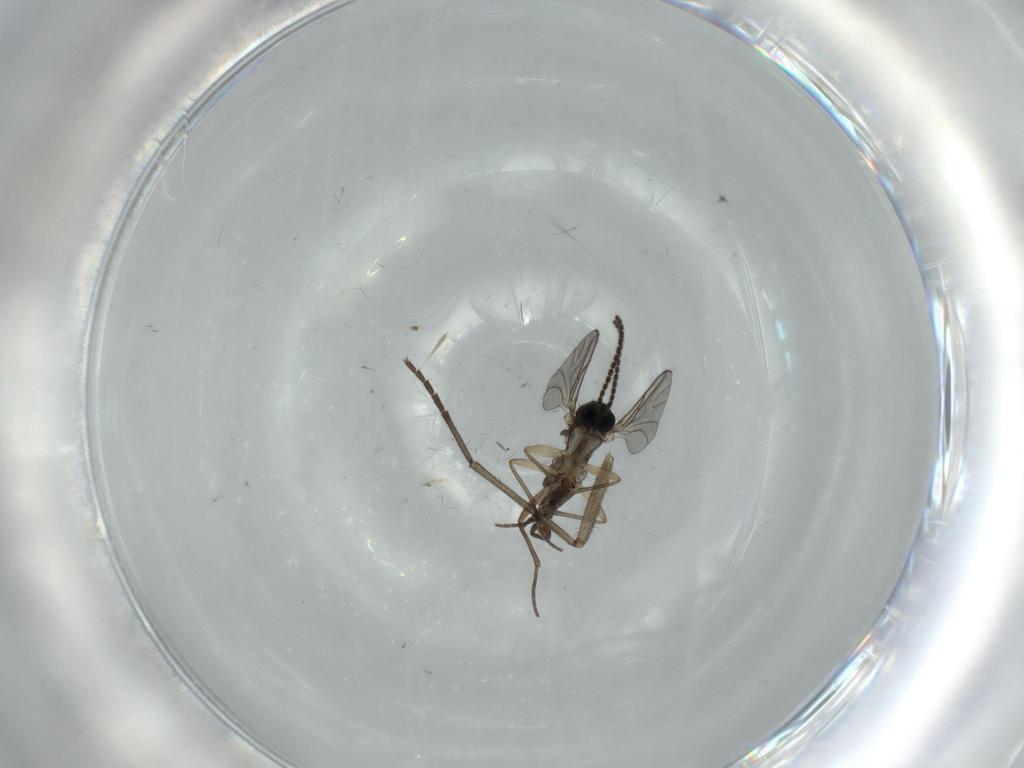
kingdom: Animalia
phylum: Arthropoda
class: Insecta
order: Diptera
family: Sciaridae
